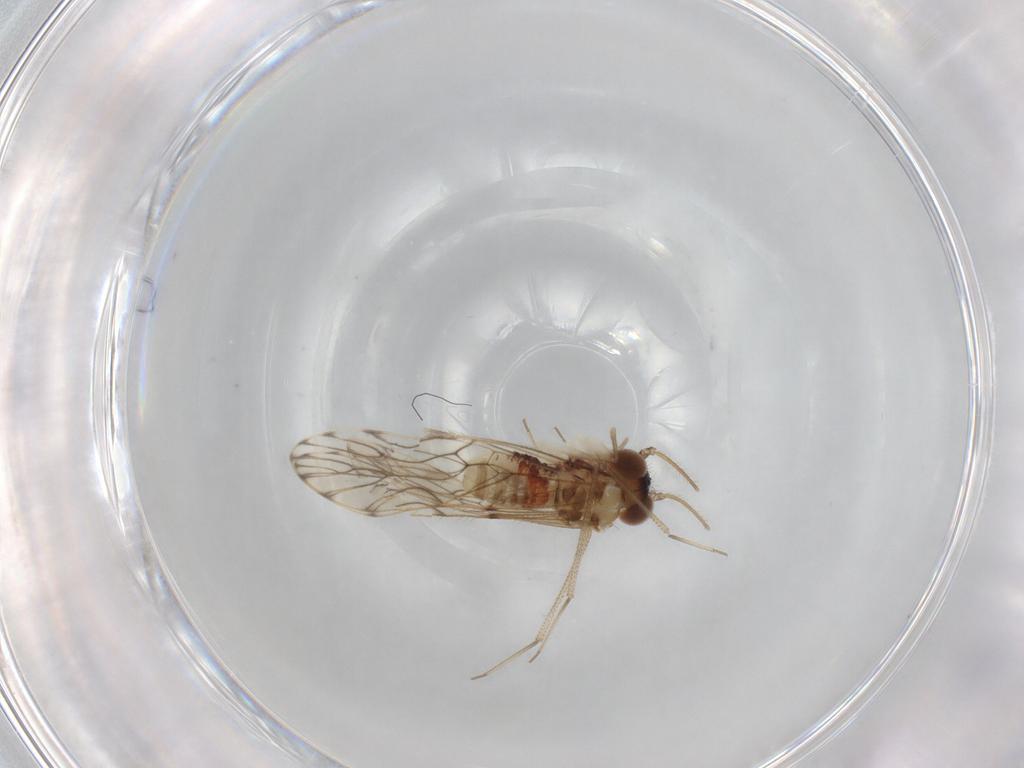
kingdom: Animalia
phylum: Arthropoda
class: Insecta
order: Psocodea
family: Epipsocidae
